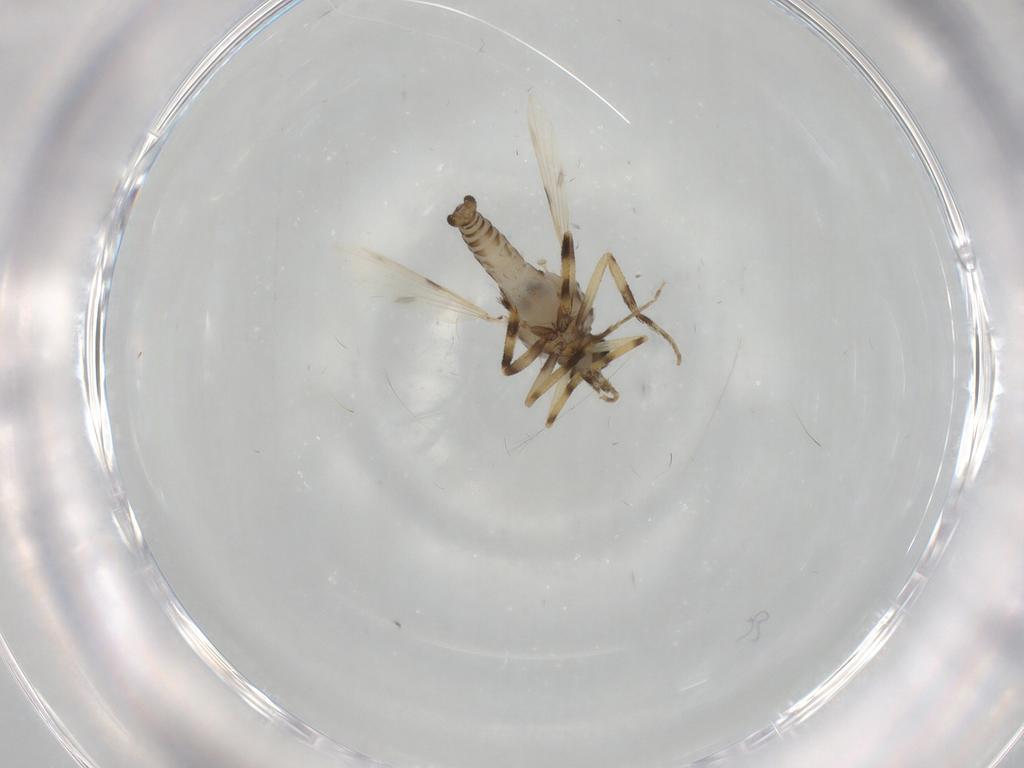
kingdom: Animalia
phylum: Arthropoda
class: Insecta
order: Diptera
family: Ceratopogonidae
